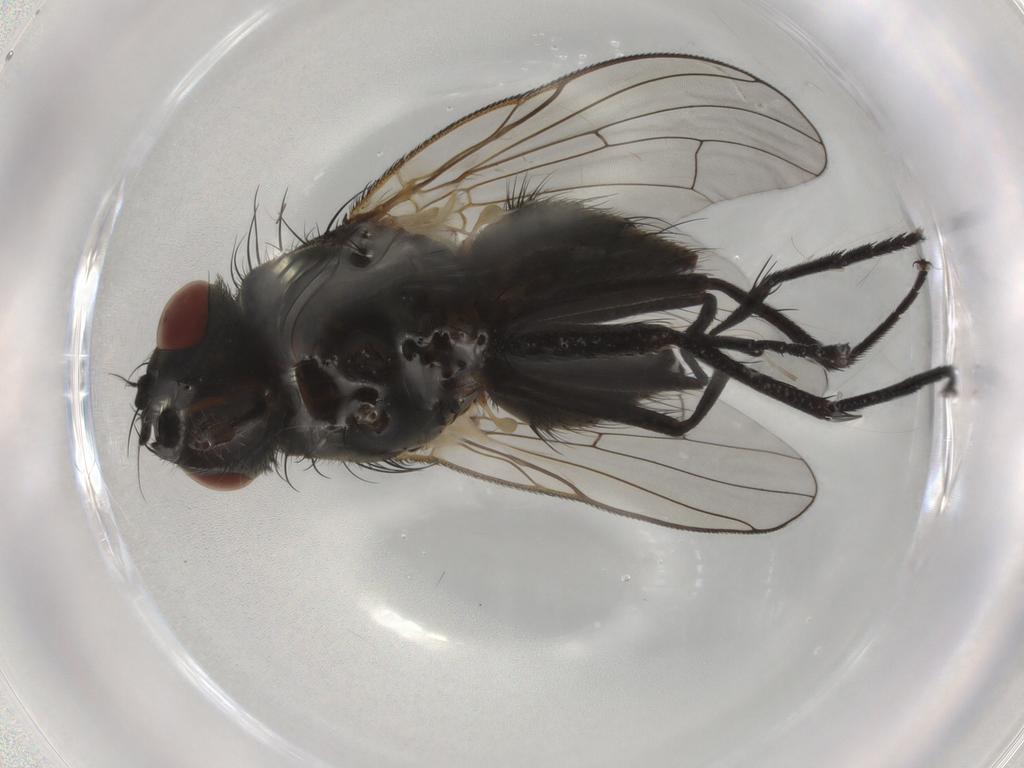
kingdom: Animalia
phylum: Arthropoda
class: Insecta
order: Diptera
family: Muscidae
